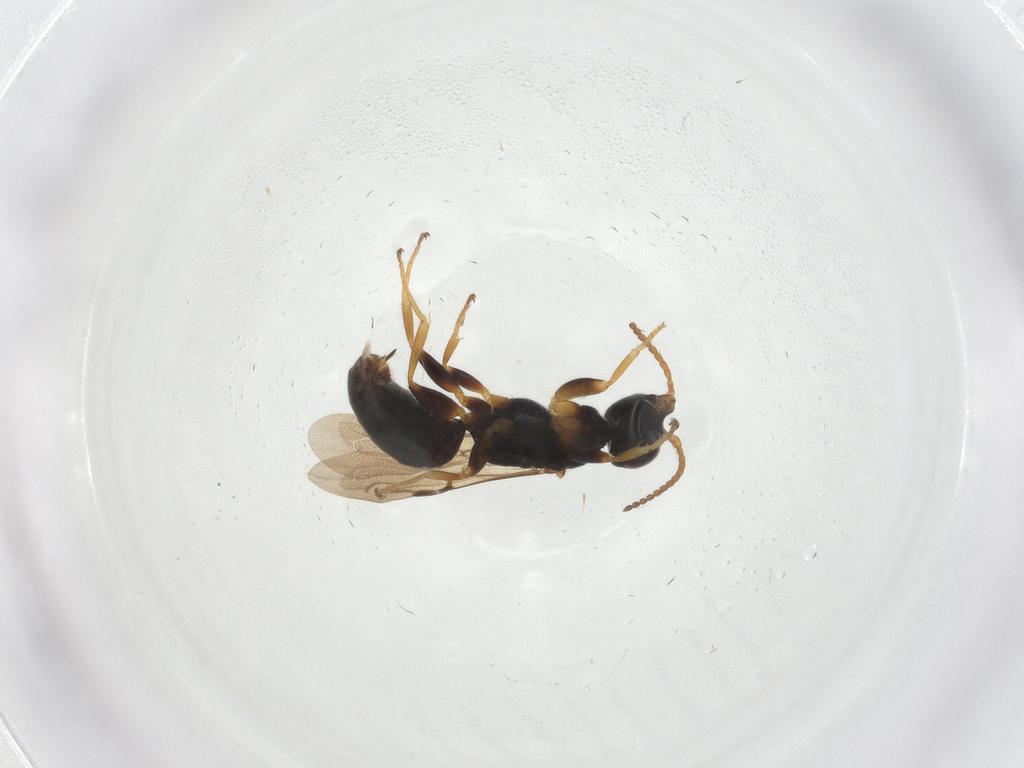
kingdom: Animalia
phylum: Arthropoda
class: Insecta
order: Hymenoptera
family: Bethylidae
